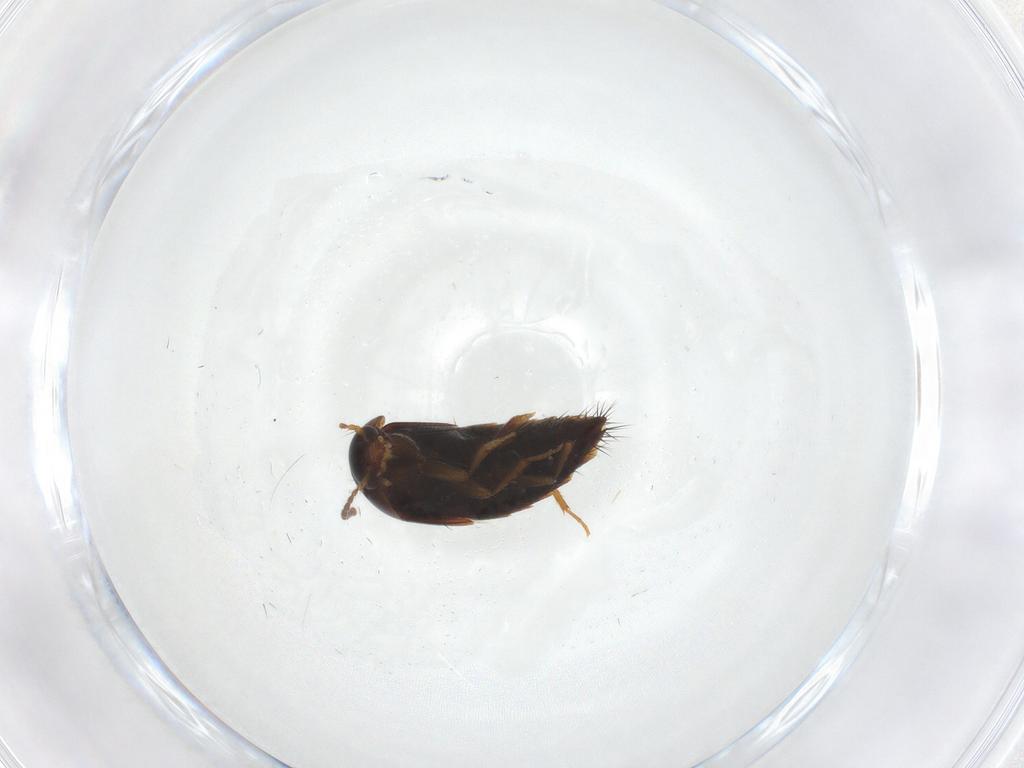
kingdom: Animalia
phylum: Arthropoda
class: Insecta
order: Coleoptera
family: Staphylinidae
